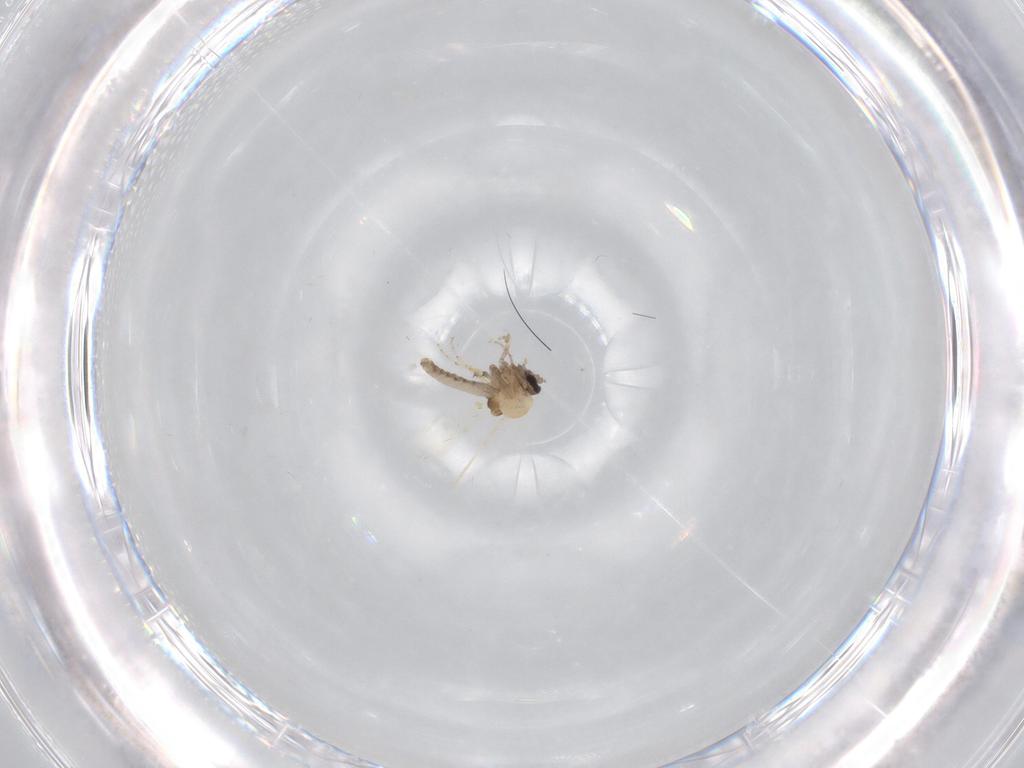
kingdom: Animalia
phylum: Arthropoda
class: Insecta
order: Diptera
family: Ceratopogonidae
